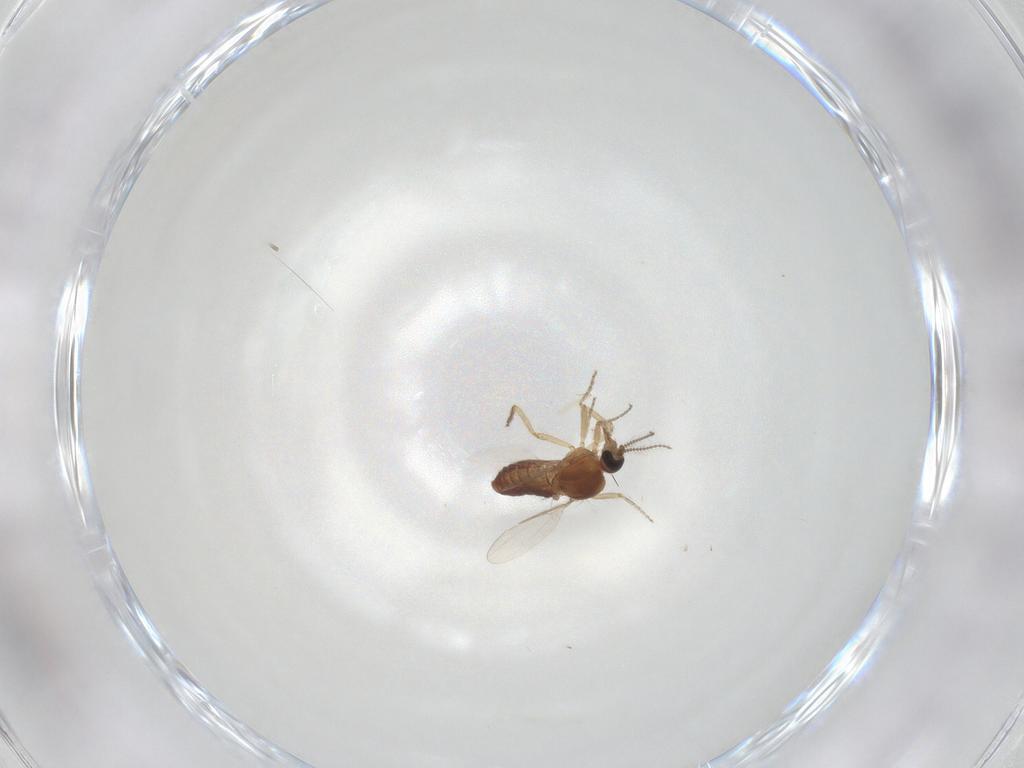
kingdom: Animalia
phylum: Arthropoda
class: Insecta
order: Diptera
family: Ceratopogonidae
